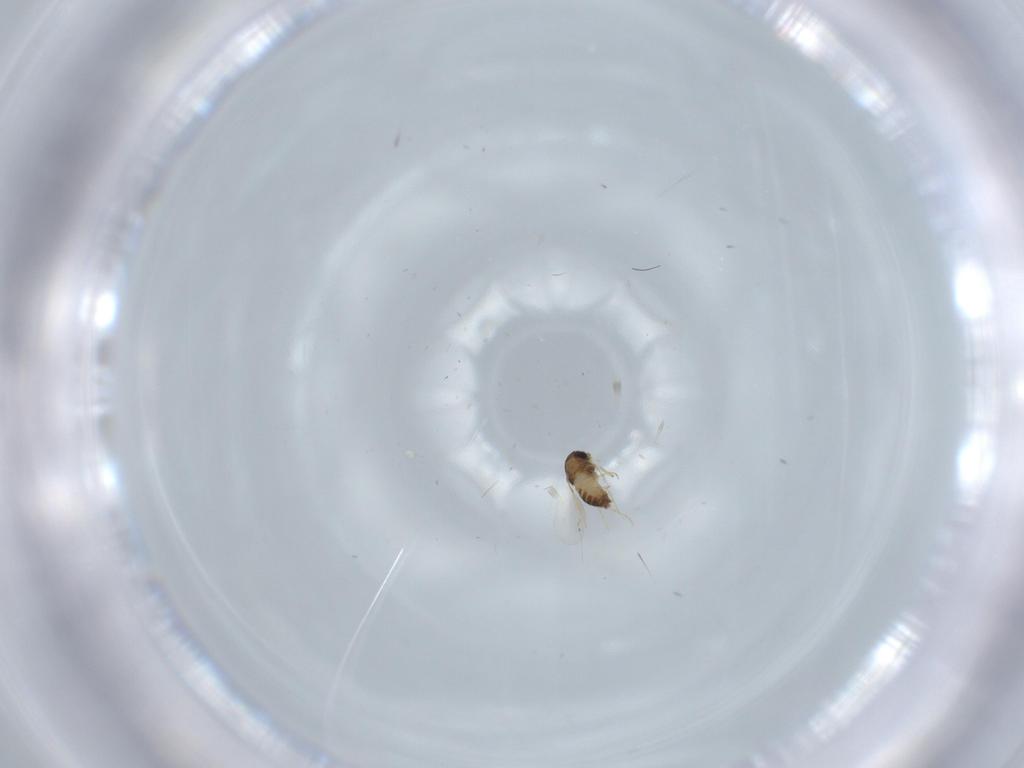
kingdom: Animalia
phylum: Arthropoda
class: Insecta
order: Diptera
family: Chironomidae
